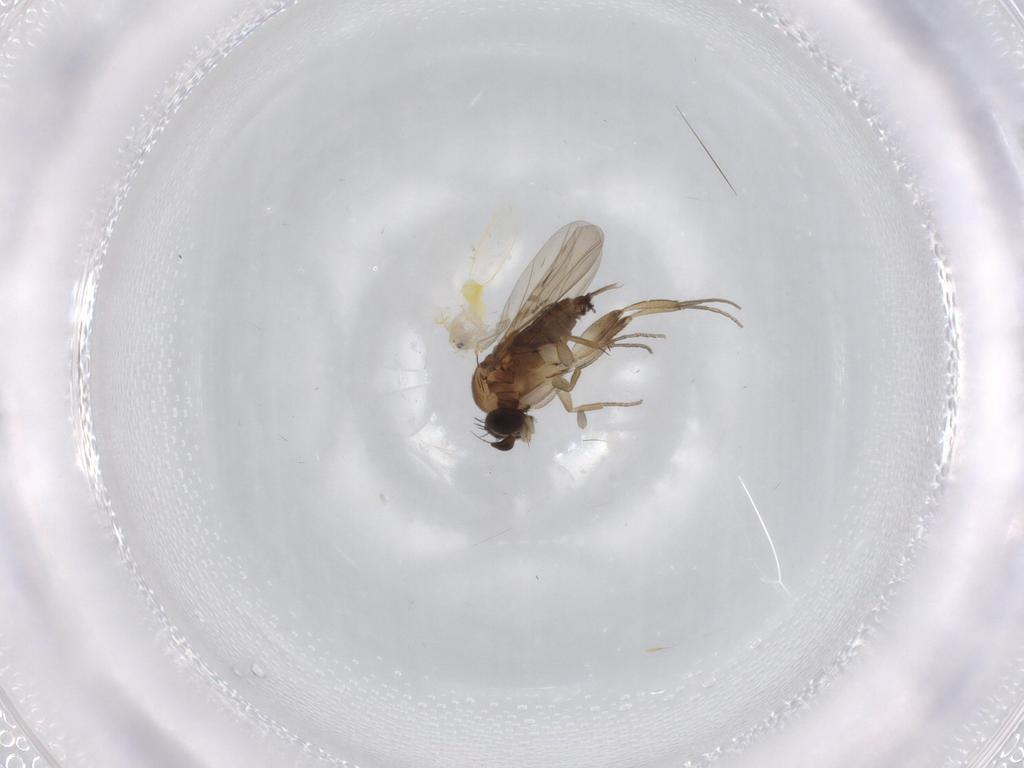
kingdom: Animalia
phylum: Arthropoda
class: Insecta
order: Diptera
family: Phoridae
